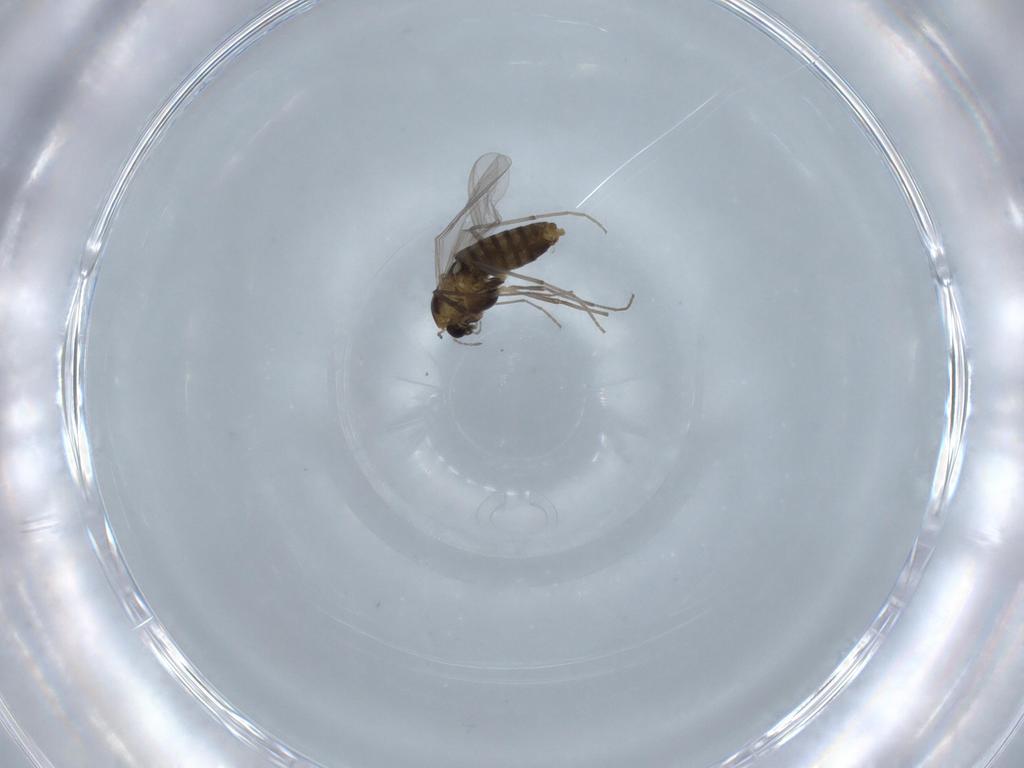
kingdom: Animalia
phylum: Arthropoda
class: Insecta
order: Diptera
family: Chironomidae
